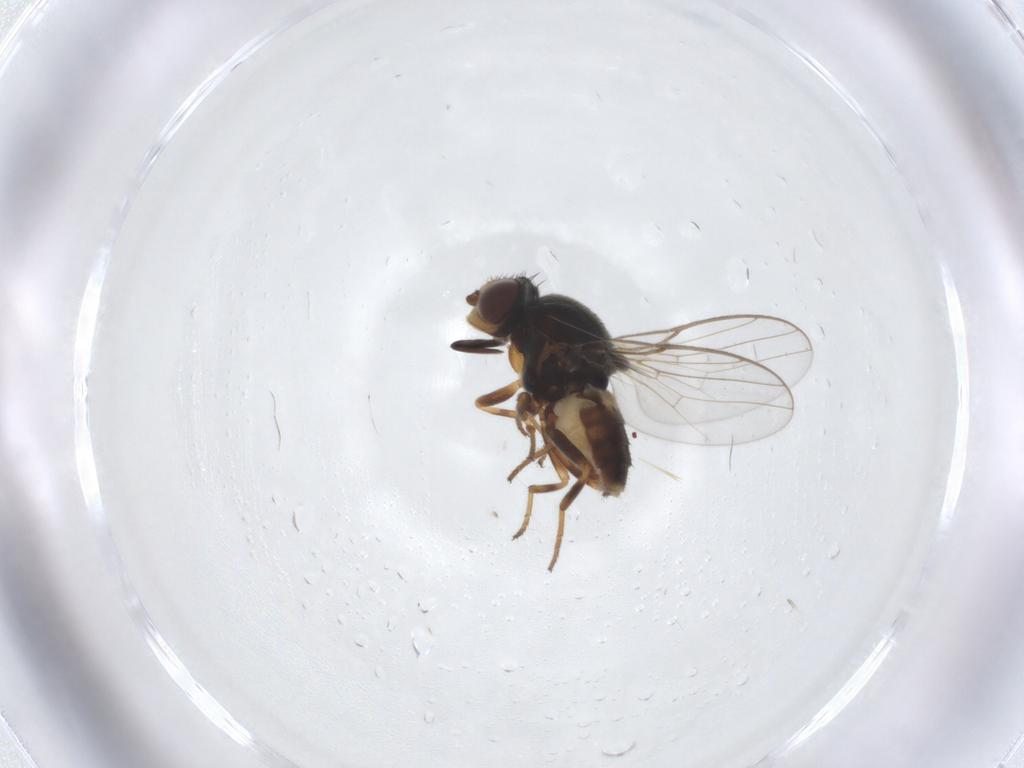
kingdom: Animalia
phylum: Arthropoda
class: Insecta
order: Diptera
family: Chloropidae
